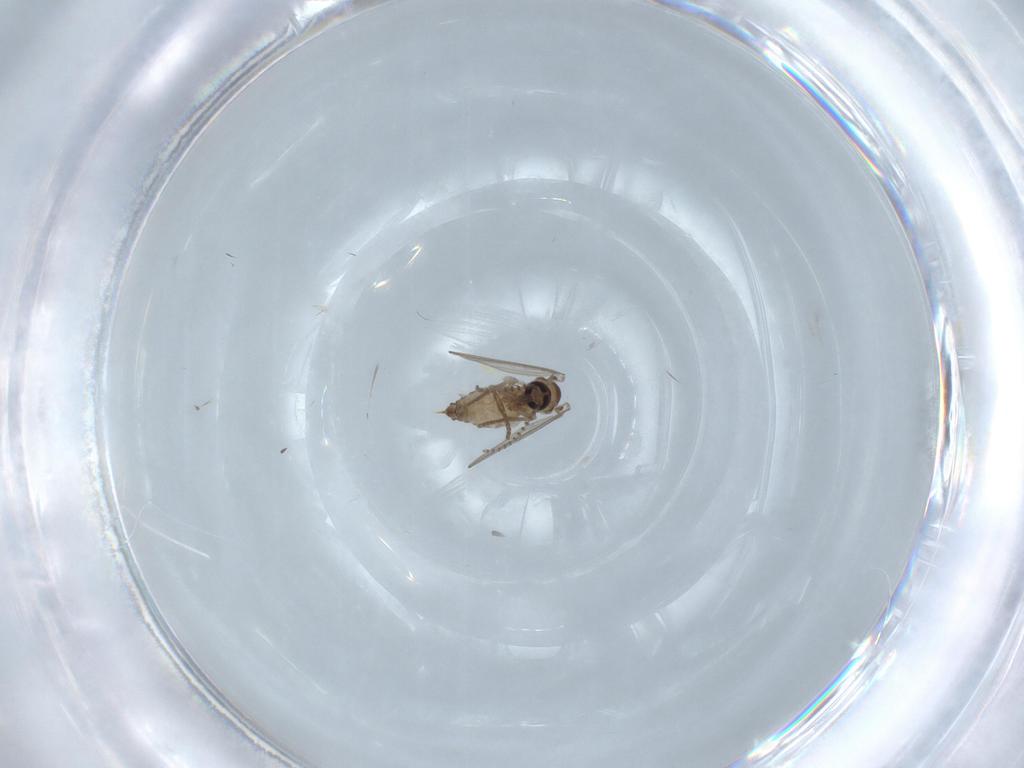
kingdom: Animalia
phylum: Arthropoda
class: Insecta
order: Diptera
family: Psychodidae
